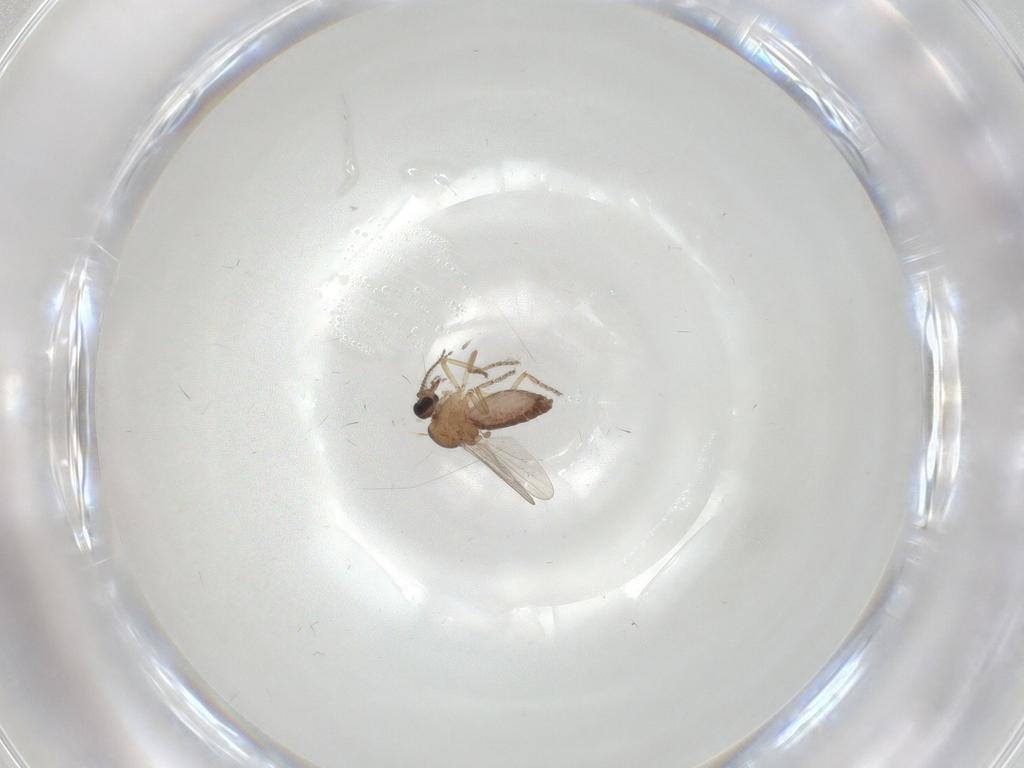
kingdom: Animalia
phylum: Arthropoda
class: Insecta
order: Diptera
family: Ceratopogonidae
